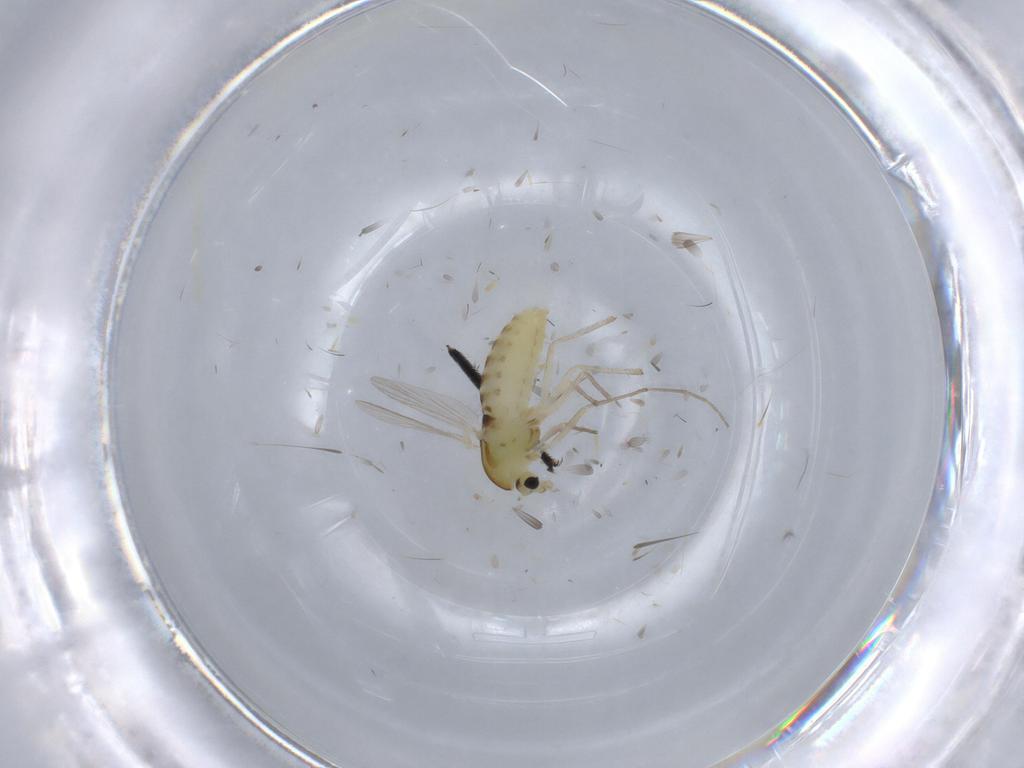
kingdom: Animalia
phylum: Arthropoda
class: Insecta
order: Diptera
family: Chironomidae
